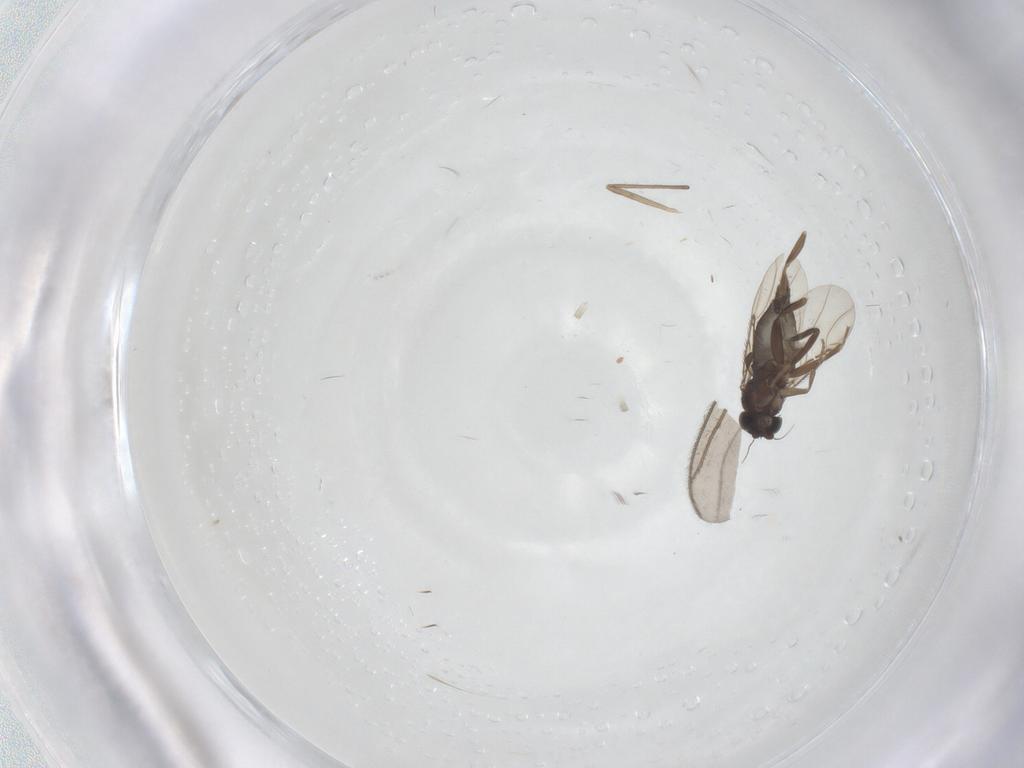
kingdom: Animalia
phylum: Arthropoda
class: Insecta
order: Diptera
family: Phoridae
